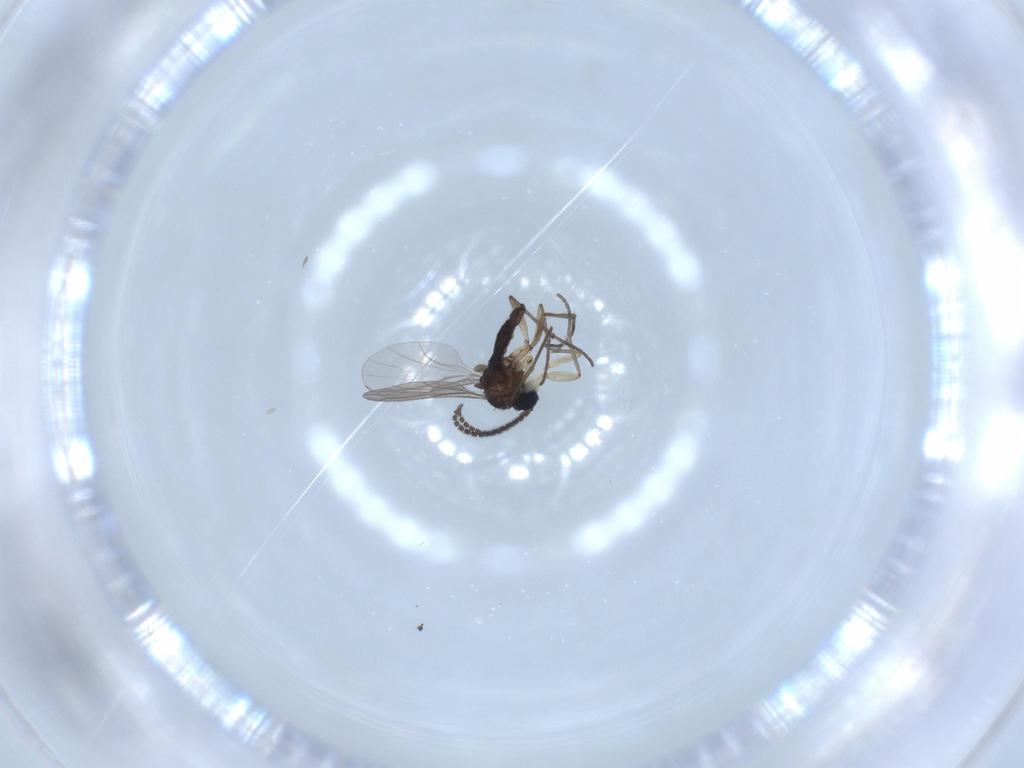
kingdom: Animalia
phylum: Arthropoda
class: Insecta
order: Diptera
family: Sciaridae
